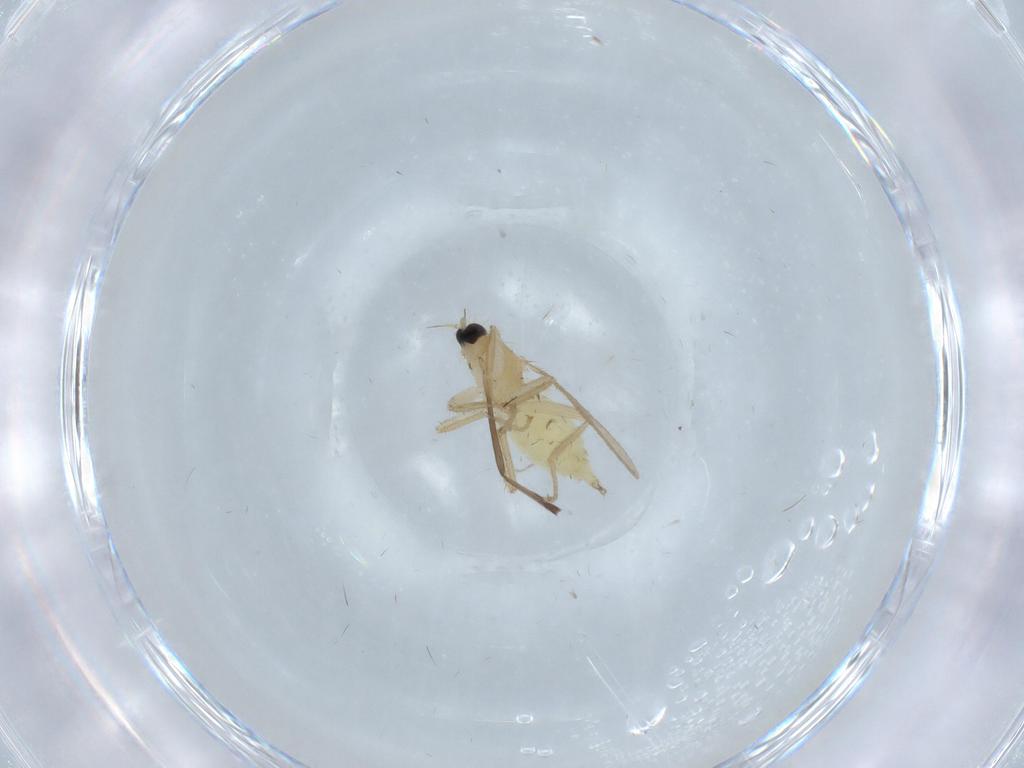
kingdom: Animalia
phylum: Arthropoda
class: Insecta
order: Diptera
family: Hybotidae
